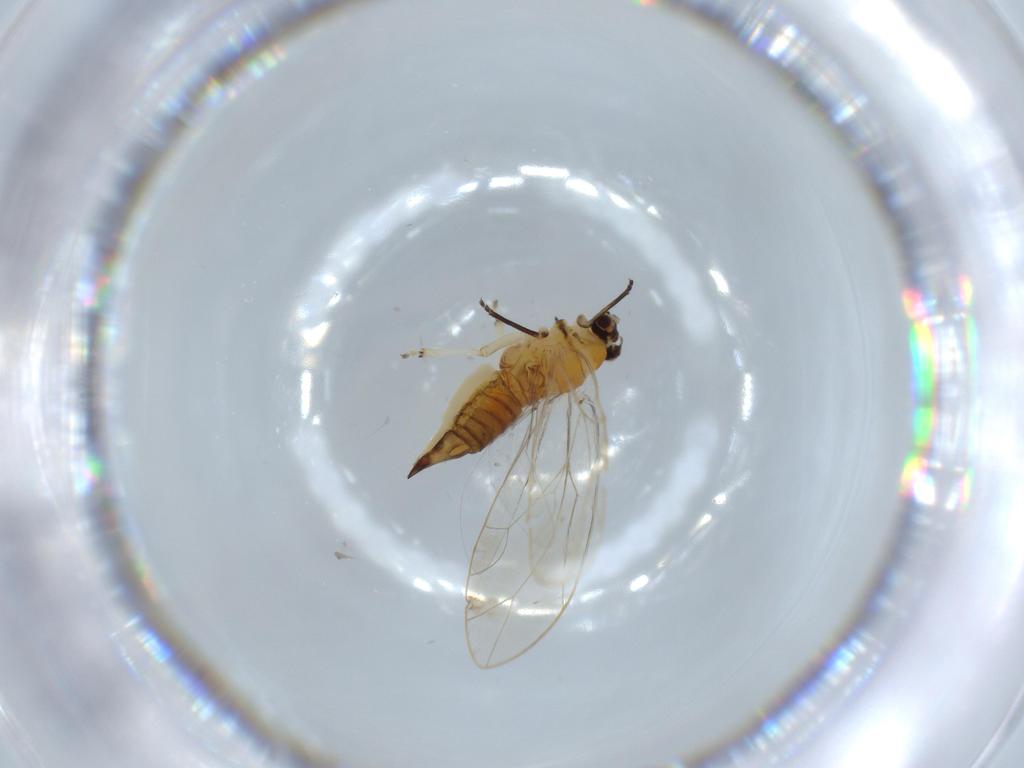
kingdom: Animalia
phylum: Arthropoda
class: Insecta
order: Hemiptera
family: Triozidae
